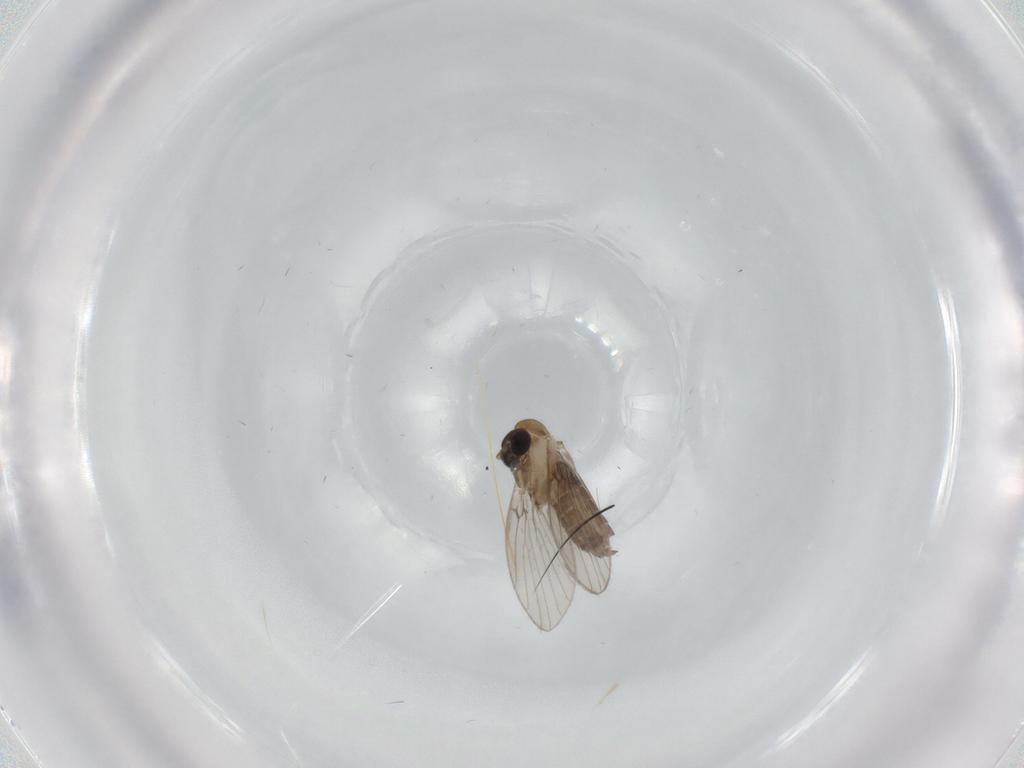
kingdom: Animalia
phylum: Arthropoda
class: Insecta
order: Diptera
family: Psychodidae
